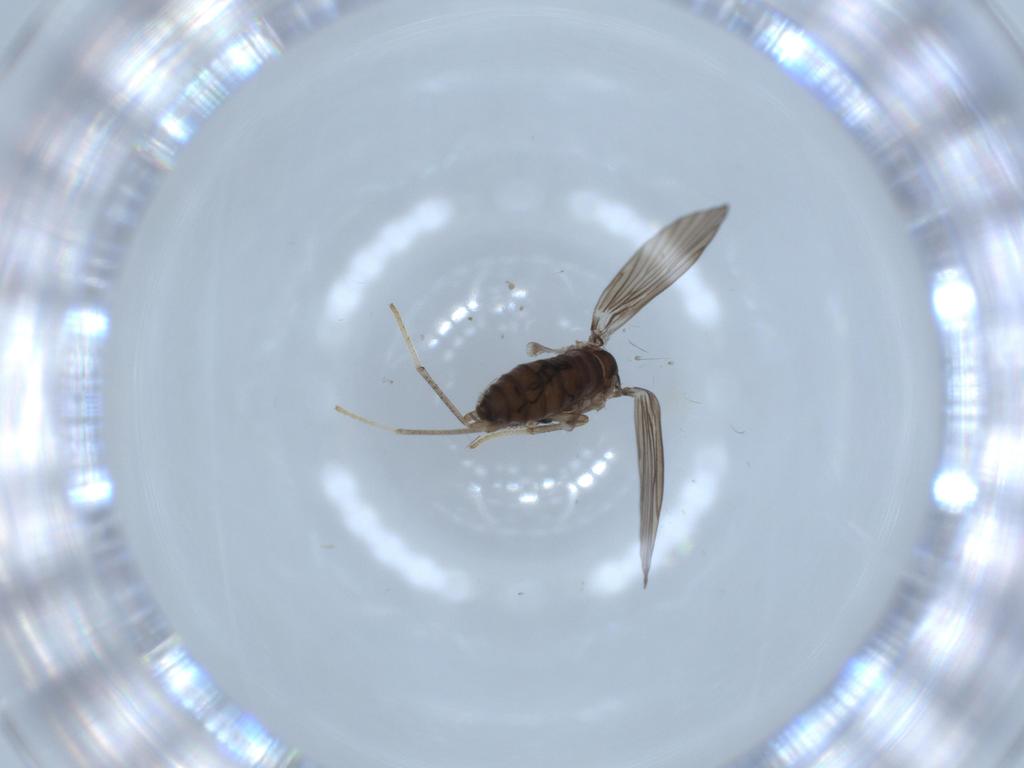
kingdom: Animalia
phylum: Arthropoda
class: Insecta
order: Diptera
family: Psychodidae
